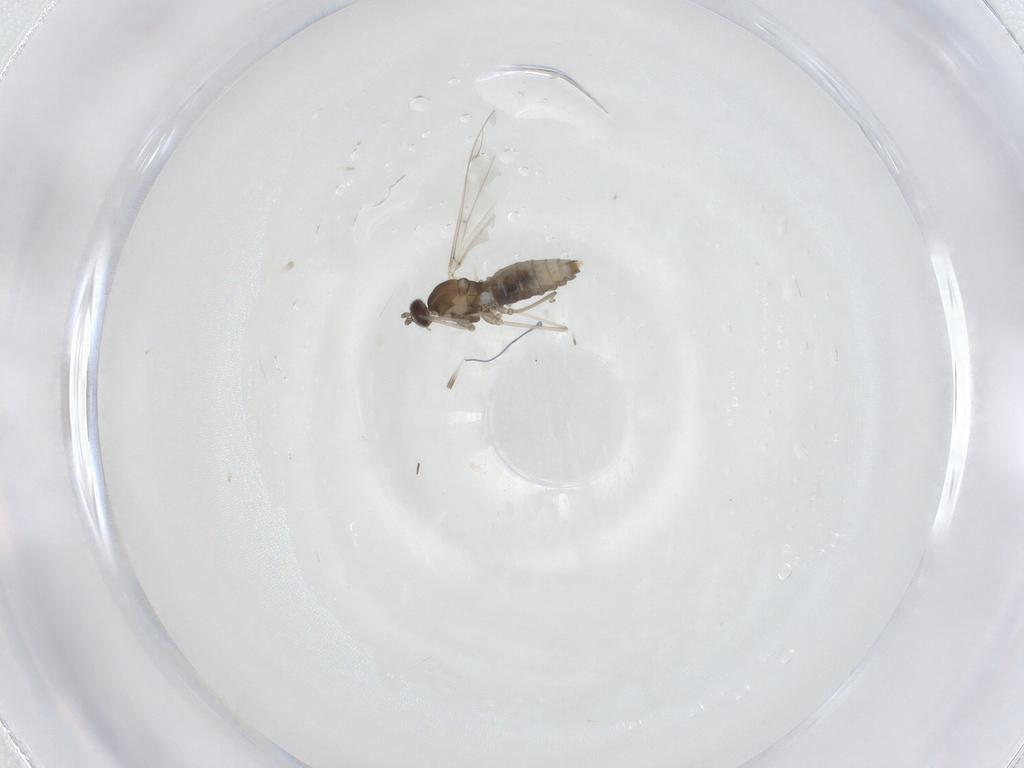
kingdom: Animalia
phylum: Arthropoda
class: Insecta
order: Diptera
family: Cecidomyiidae
